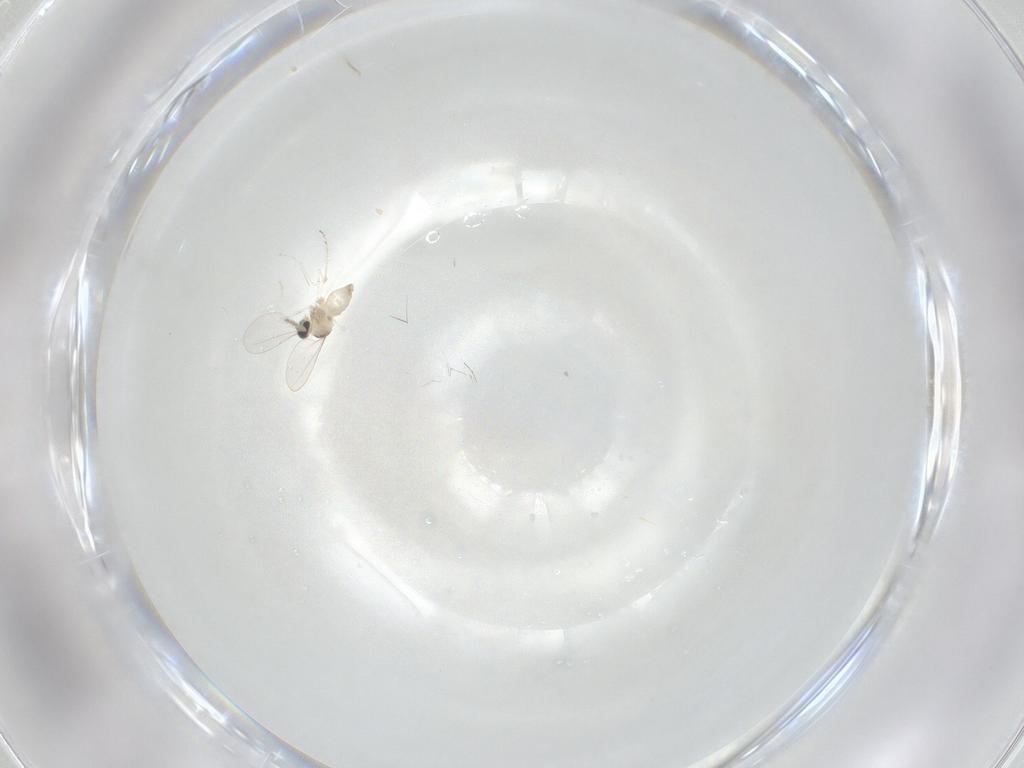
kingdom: Animalia
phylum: Arthropoda
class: Insecta
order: Diptera
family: Cecidomyiidae
